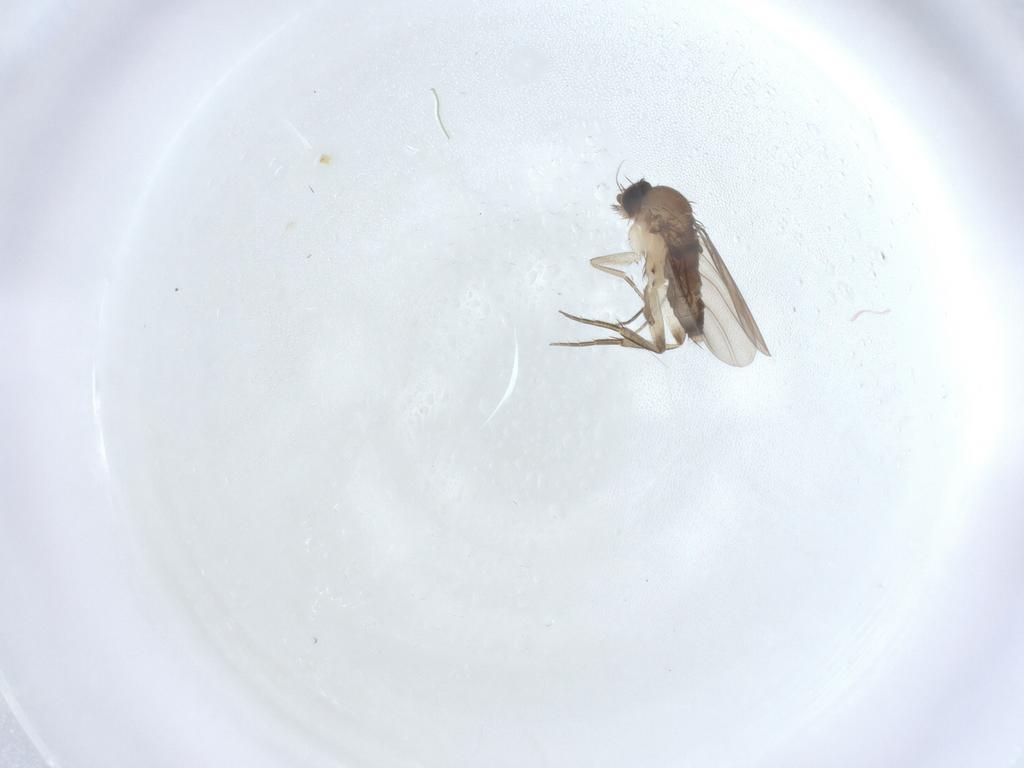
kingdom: Animalia
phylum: Arthropoda
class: Insecta
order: Diptera
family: Phoridae
